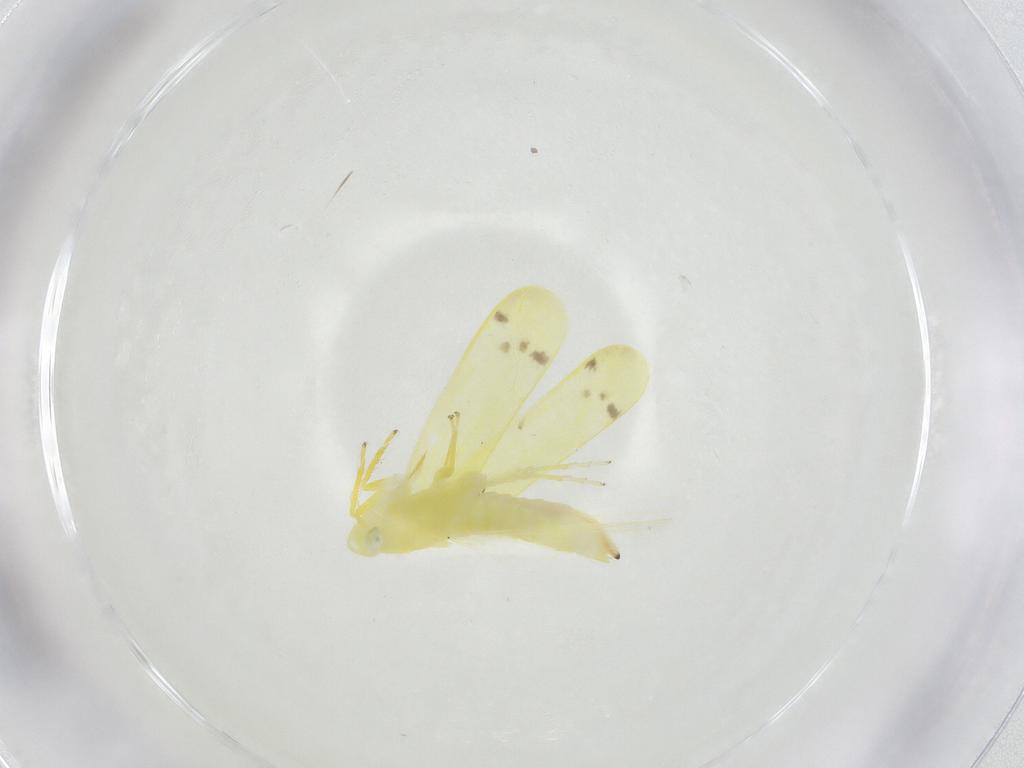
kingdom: Animalia
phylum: Arthropoda
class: Insecta
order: Hemiptera
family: Cicadellidae
